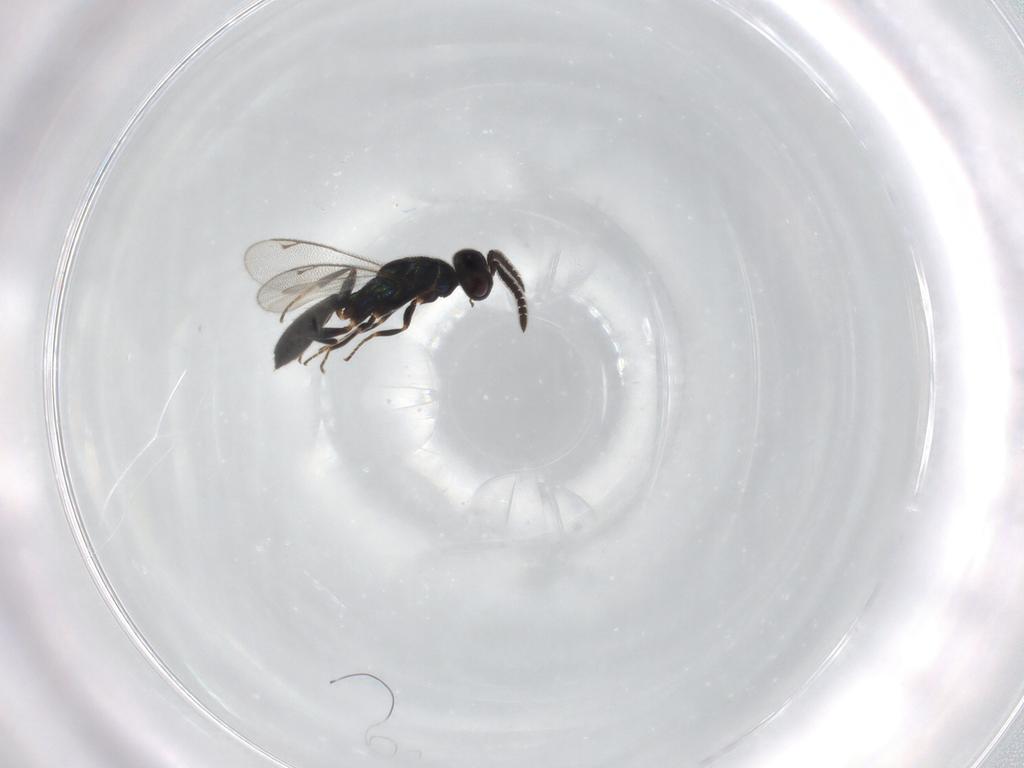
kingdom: Animalia
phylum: Arthropoda
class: Insecta
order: Hymenoptera
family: Cleonyminae
